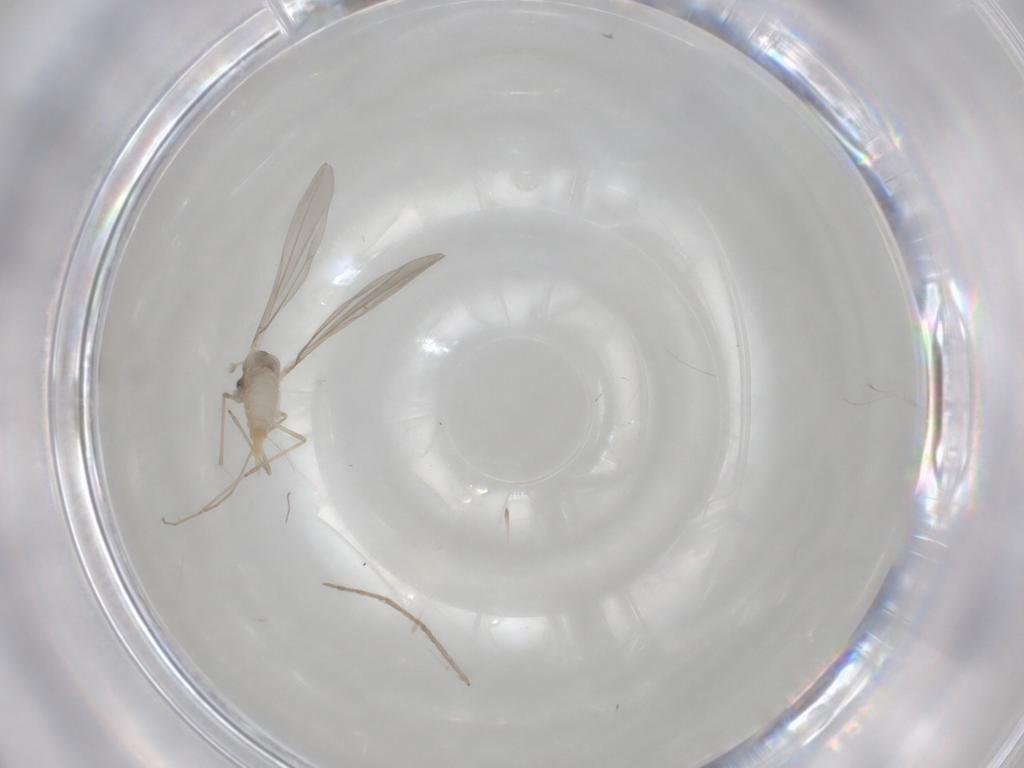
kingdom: Animalia
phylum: Arthropoda
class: Insecta
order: Diptera
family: Chironomidae
